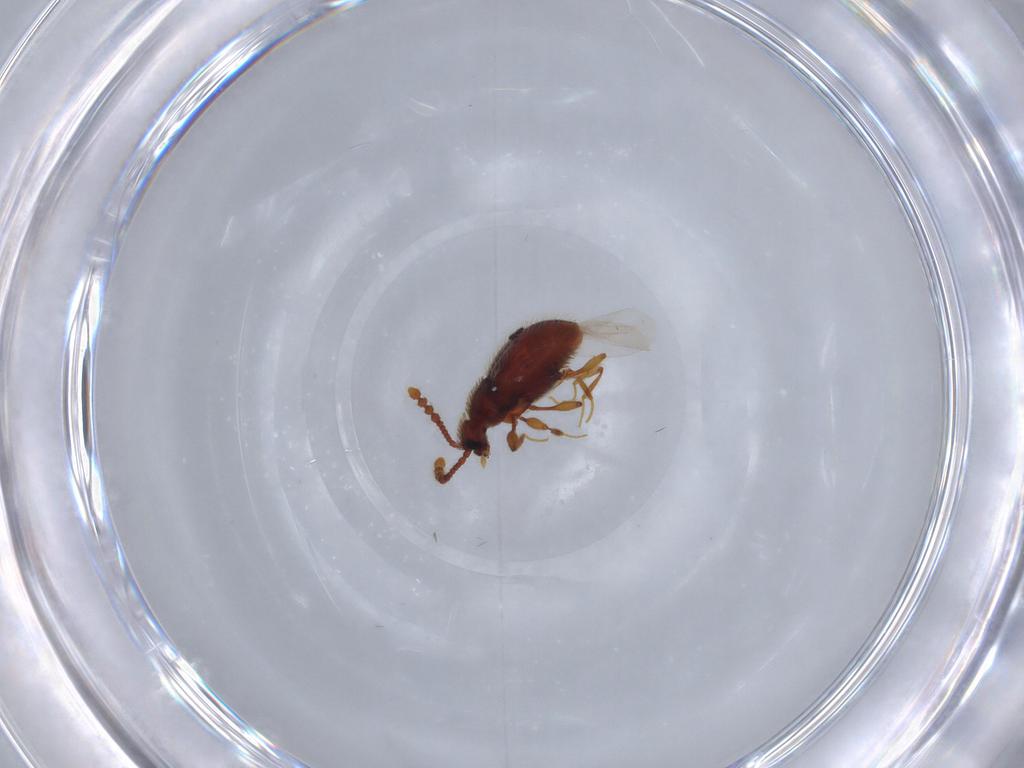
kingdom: Animalia
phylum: Arthropoda
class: Insecta
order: Coleoptera
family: Staphylinidae
